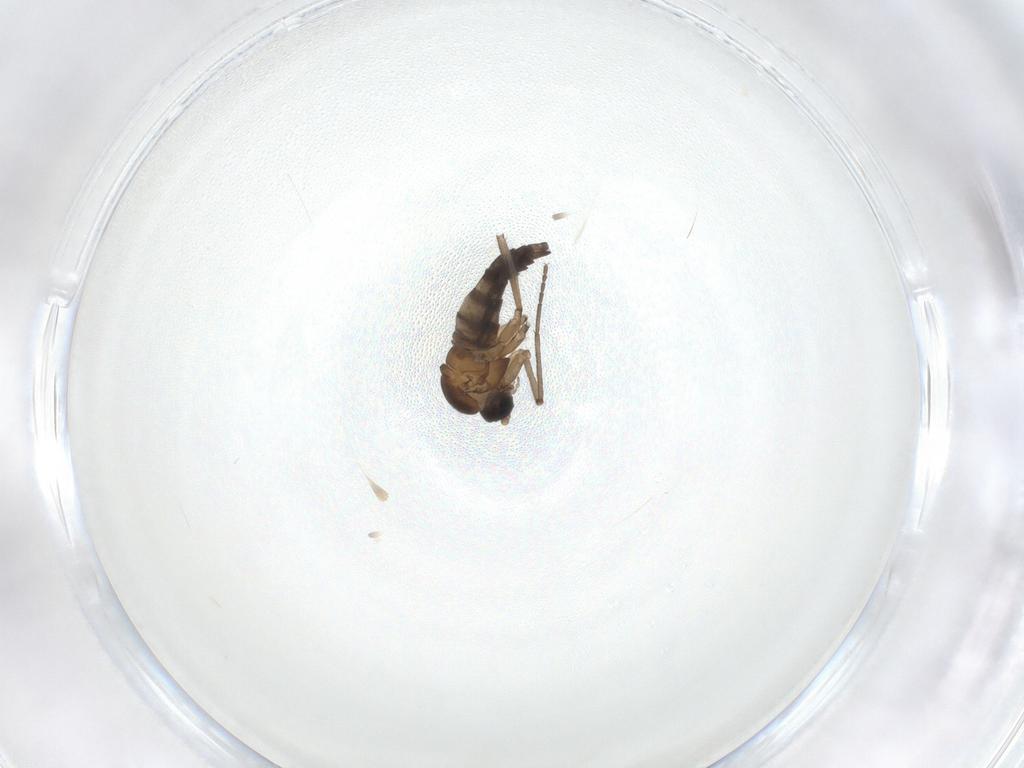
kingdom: Animalia
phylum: Arthropoda
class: Insecta
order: Diptera
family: Sciaridae
